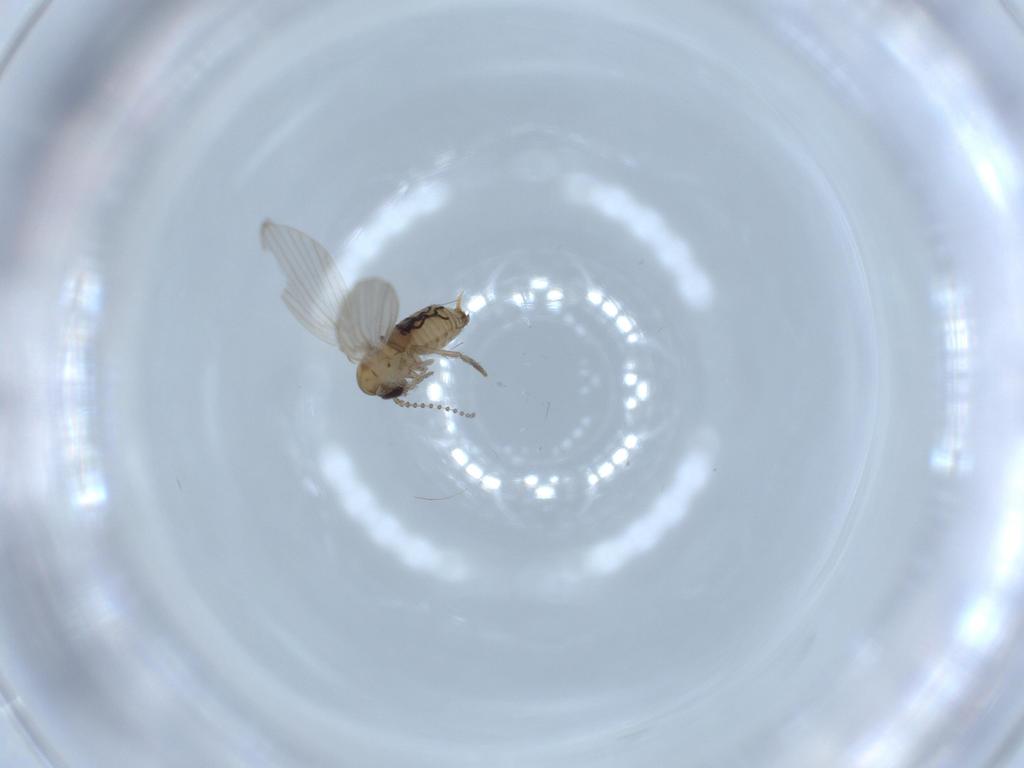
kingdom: Animalia
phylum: Arthropoda
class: Insecta
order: Diptera
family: Psychodidae
